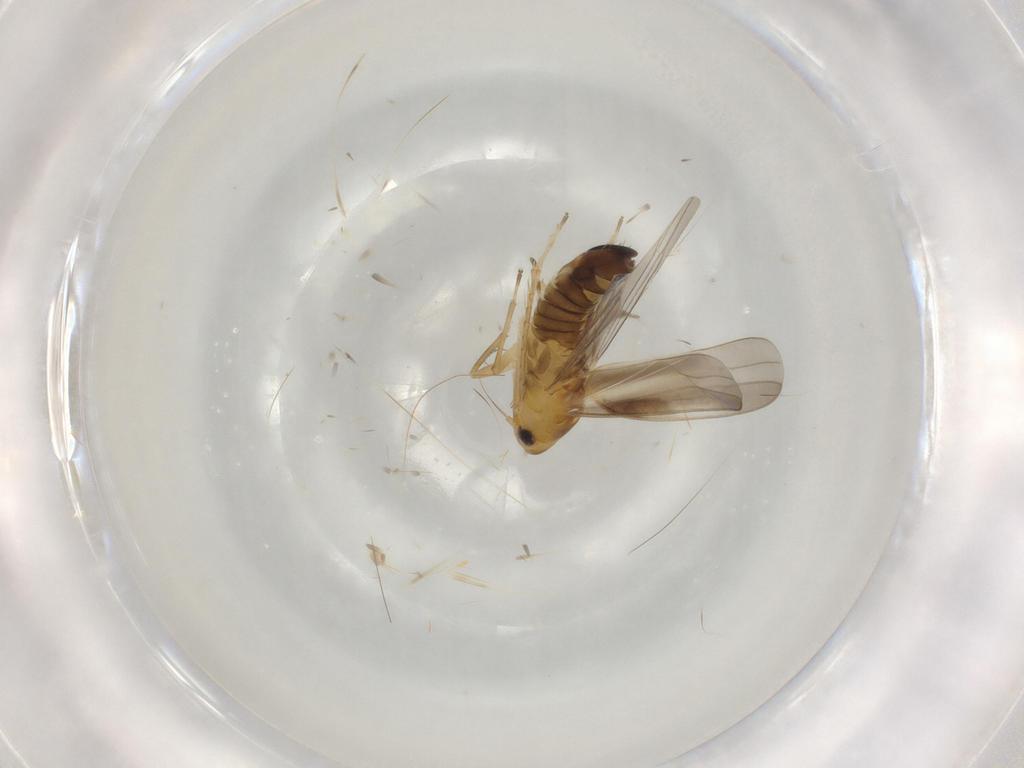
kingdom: Animalia
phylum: Arthropoda
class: Insecta
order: Hemiptera
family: Cicadellidae
